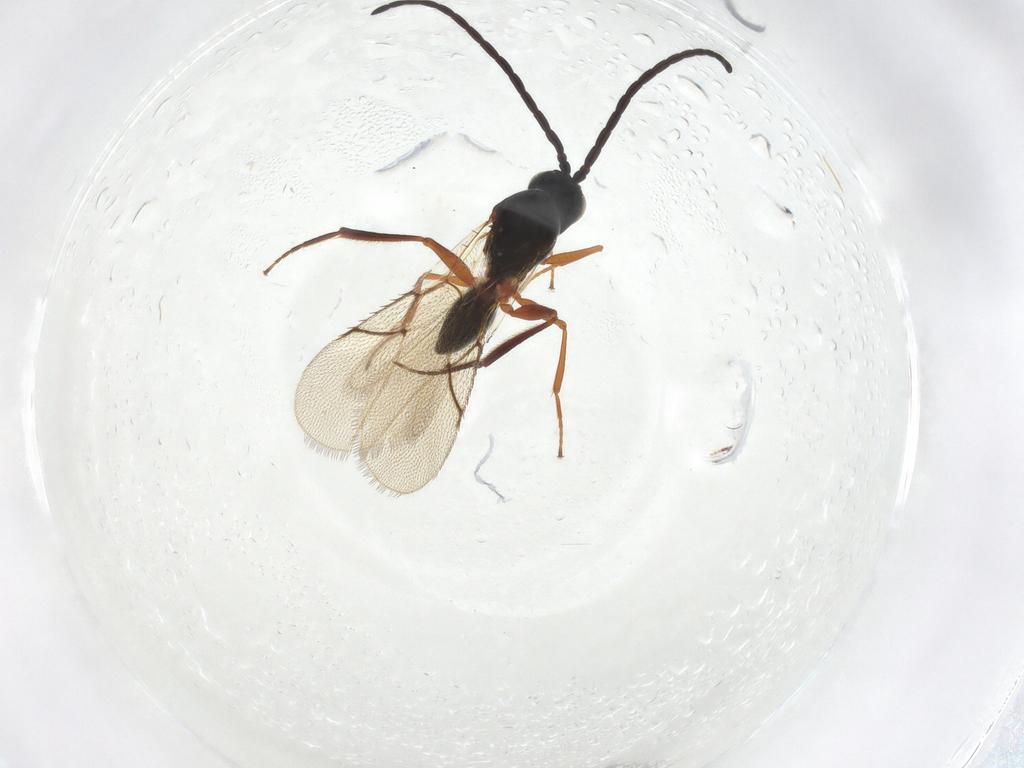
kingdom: Animalia
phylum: Arthropoda
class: Insecta
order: Hymenoptera
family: Figitidae
